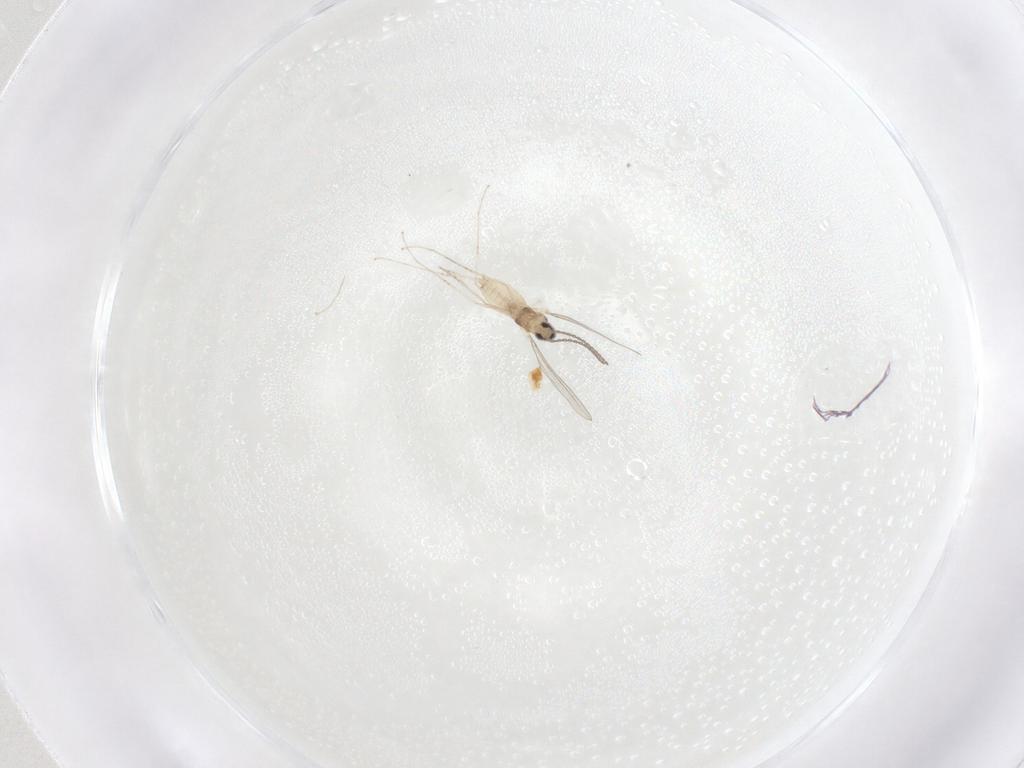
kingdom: Animalia
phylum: Arthropoda
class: Insecta
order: Diptera
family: Cecidomyiidae
